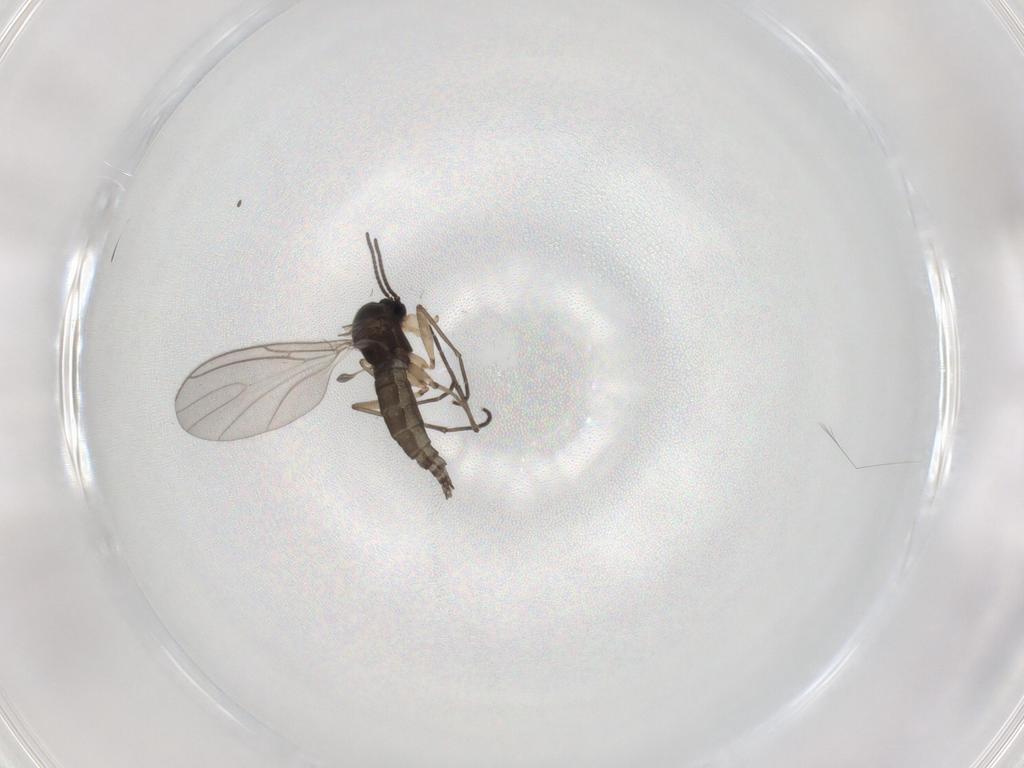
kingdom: Animalia
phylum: Arthropoda
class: Insecta
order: Diptera
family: Sciaridae
